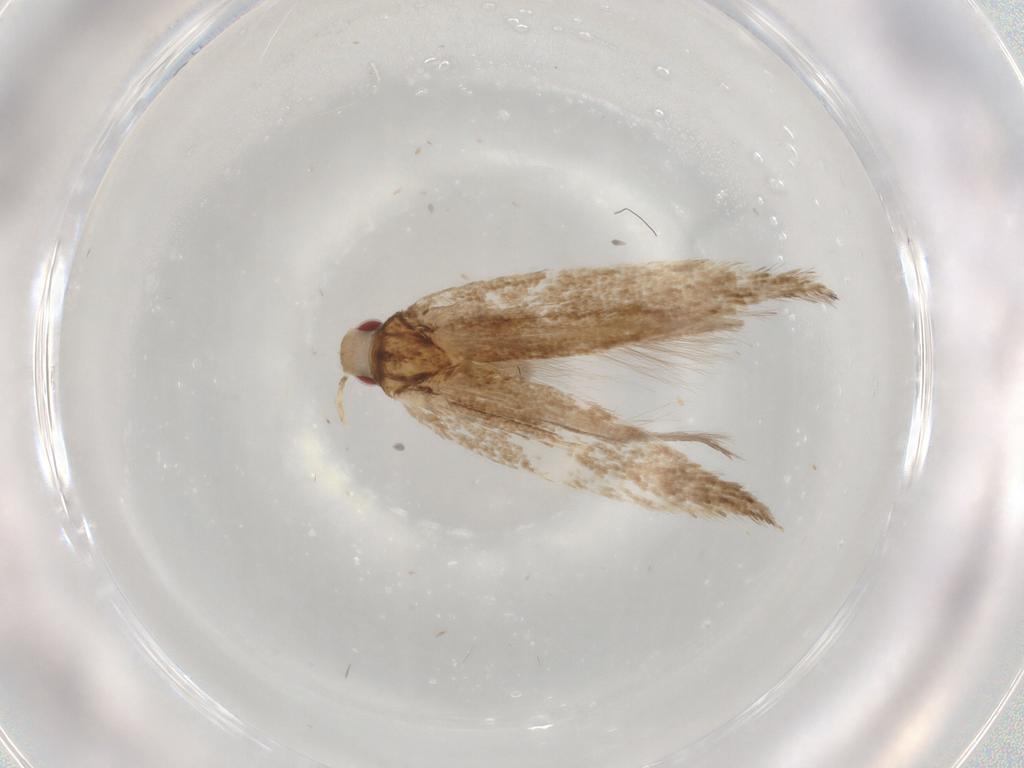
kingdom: Animalia
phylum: Arthropoda
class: Insecta
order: Lepidoptera
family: Cosmopterigidae
